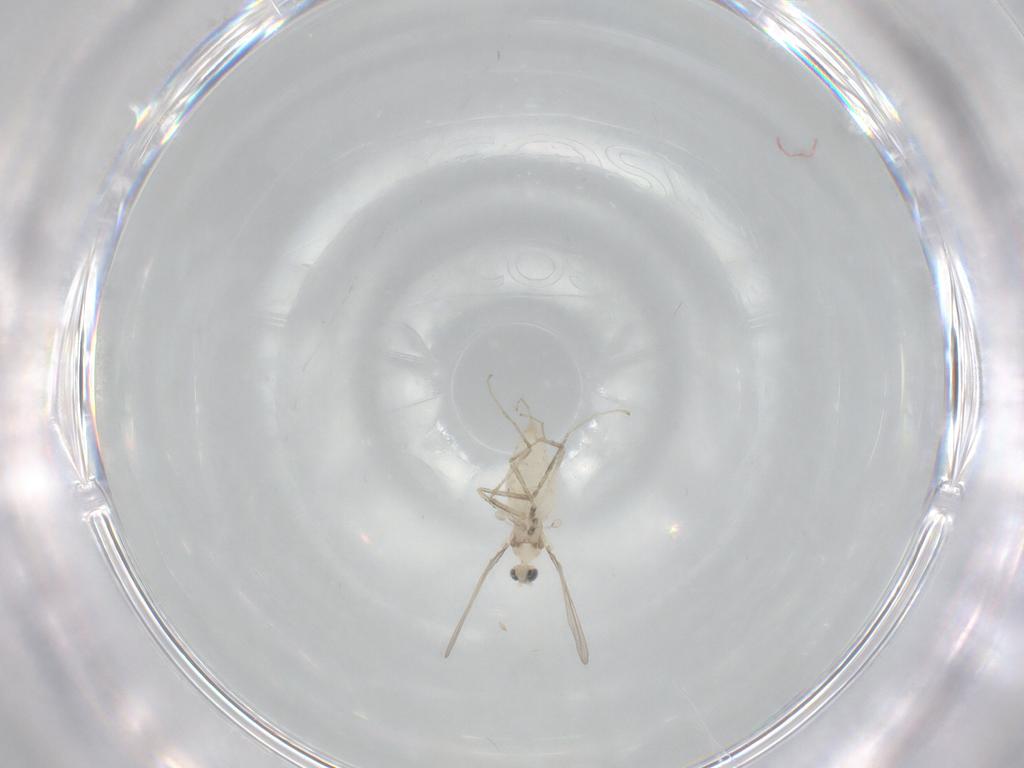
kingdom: Animalia
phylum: Arthropoda
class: Insecta
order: Diptera
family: Cecidomyiidae
